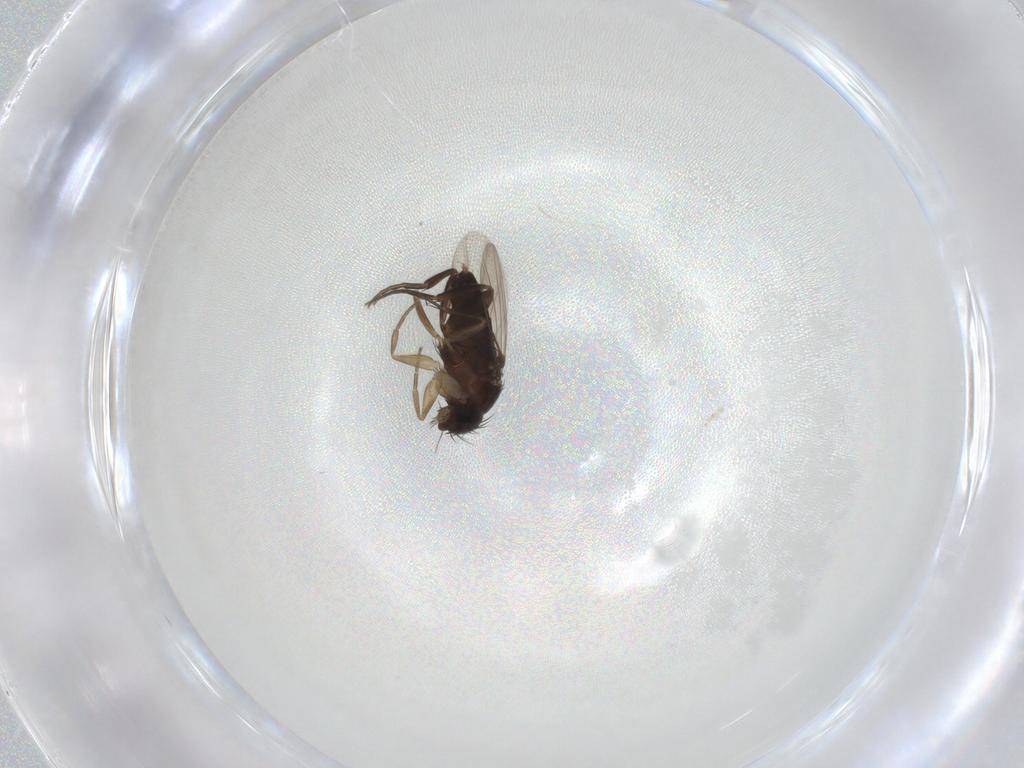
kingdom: Animalia
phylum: Arthropoda
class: Insecta
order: Diptera
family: Phoridae
